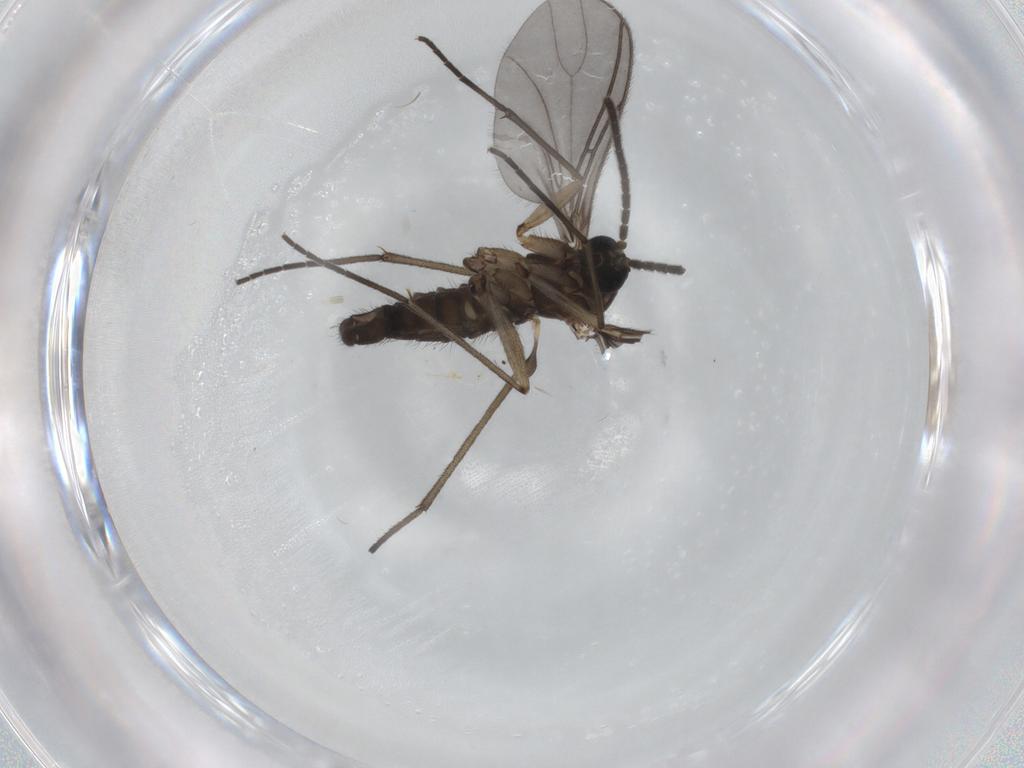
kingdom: Animalia
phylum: Arthropoda
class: Insecta
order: Diptera
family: Sciaridae
